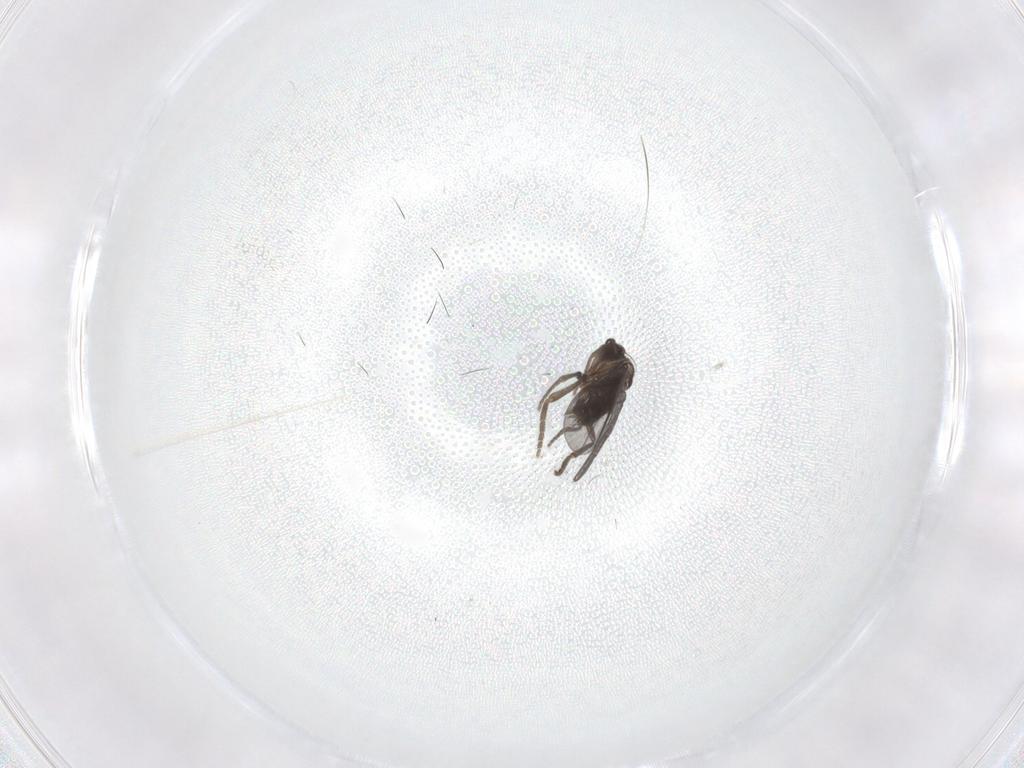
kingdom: Animalia
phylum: Arthropoda
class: Insecta
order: Diptera
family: Phoridae
